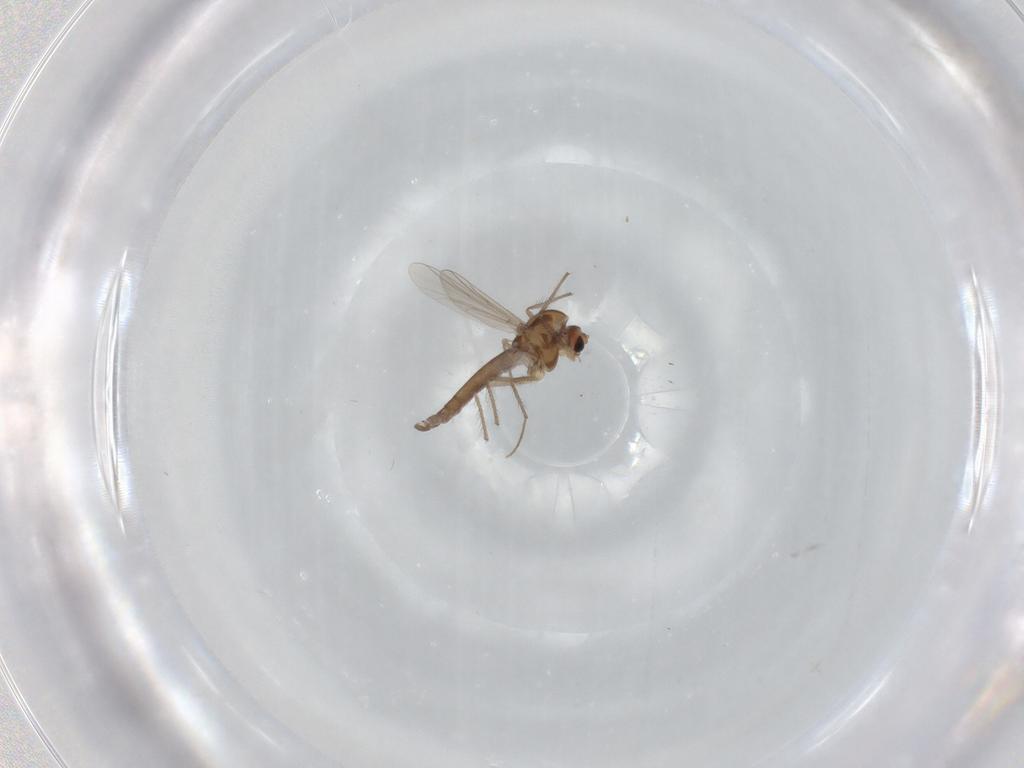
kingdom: Animalia
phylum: Arthropoda
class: Insecta
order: Diptera
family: Chironomidae
